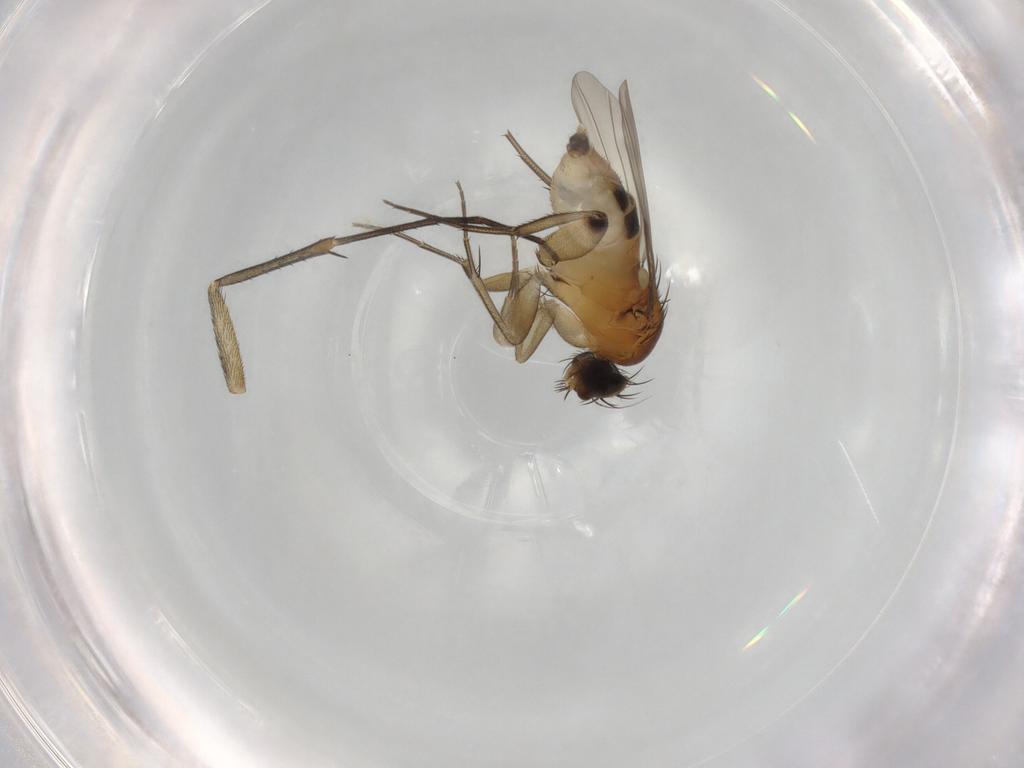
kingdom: Animalia
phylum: Arthropoda
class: Insecta
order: Diptera
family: Phoridae
